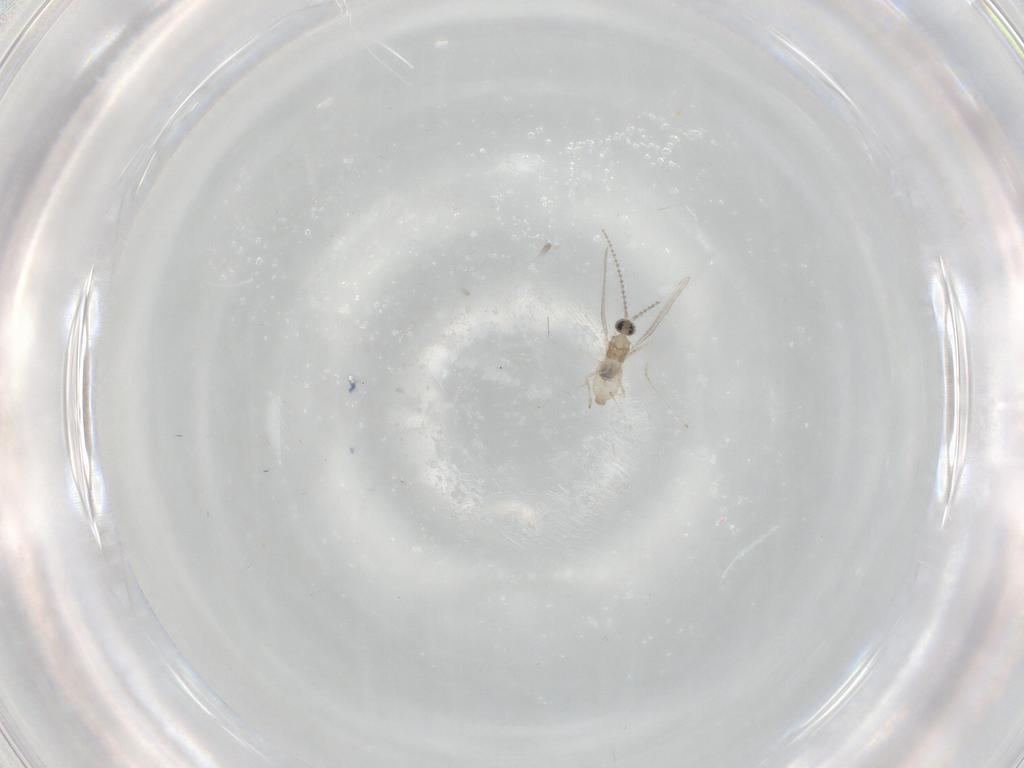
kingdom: Animalia
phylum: Arthropoda
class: Insecta
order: Diptera
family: Cecidomyiidae
